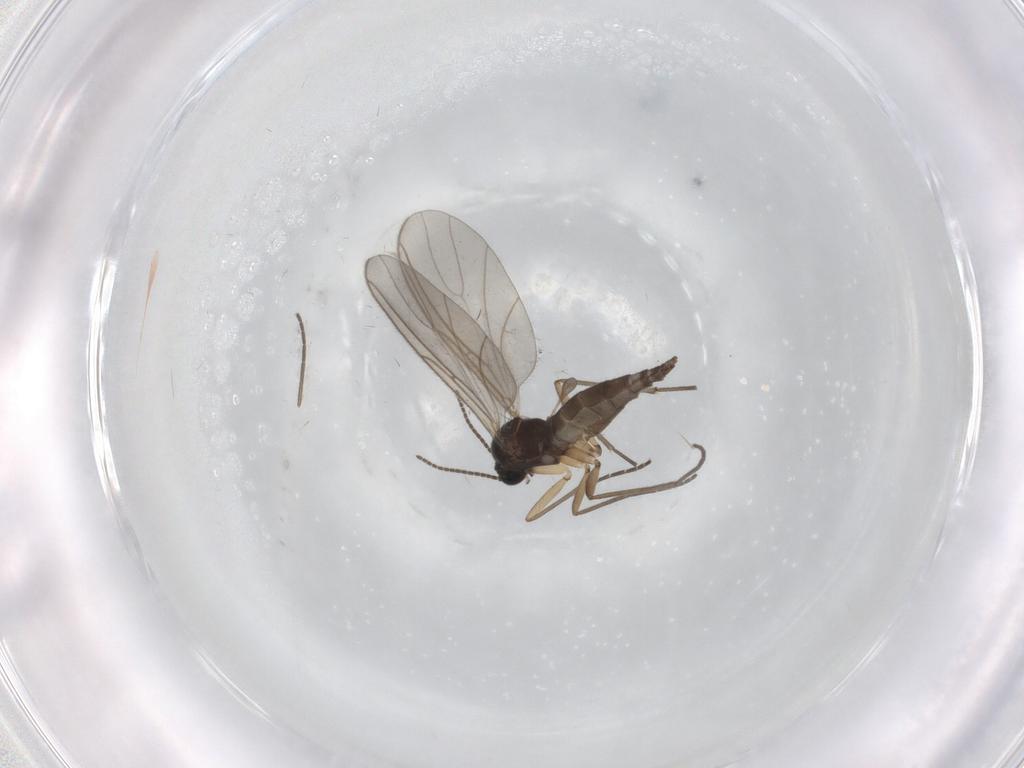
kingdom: Animalia
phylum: Arthropoda
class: Insecta
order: Diptera
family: Sciaridae
